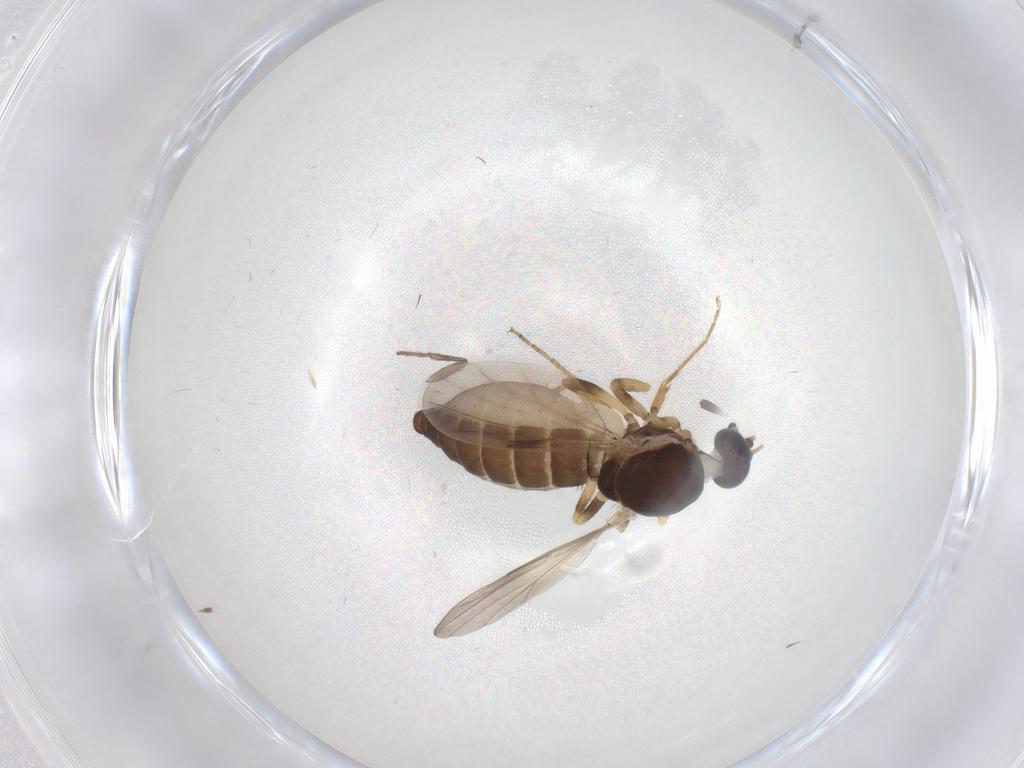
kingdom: Animalia
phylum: Arthropoda
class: Insecta
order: Diptera
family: Ceratopogonidae
